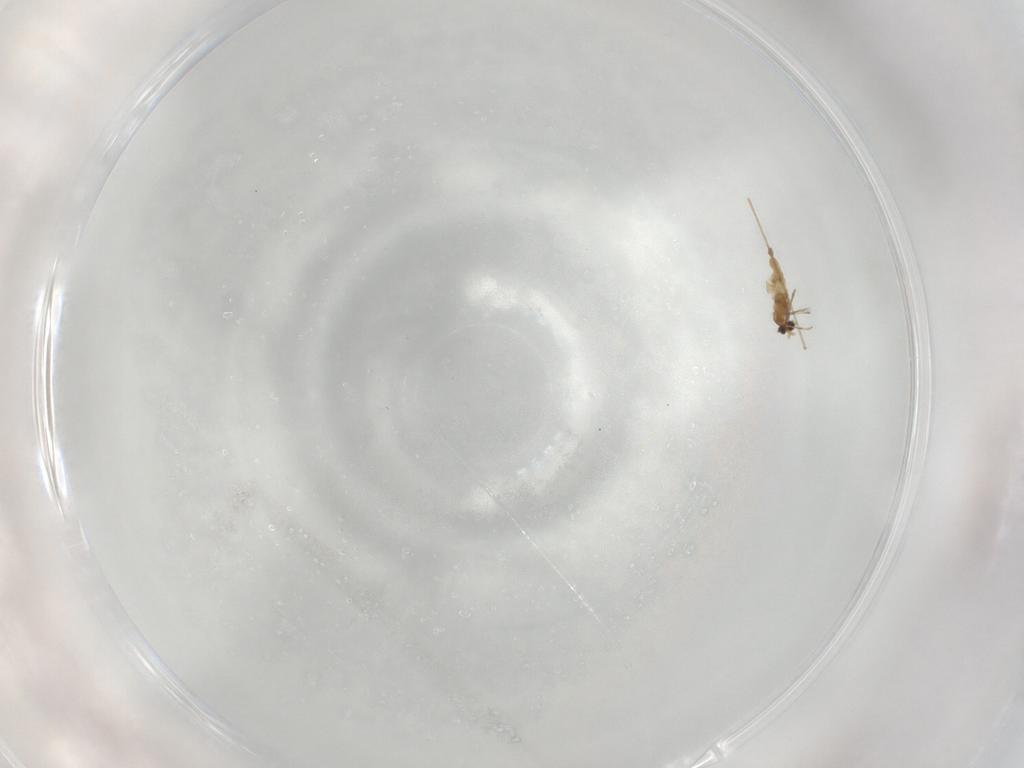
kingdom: Animalia
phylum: Arthropoda
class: Insecta
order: Diptera
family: Cecidomyiidae
